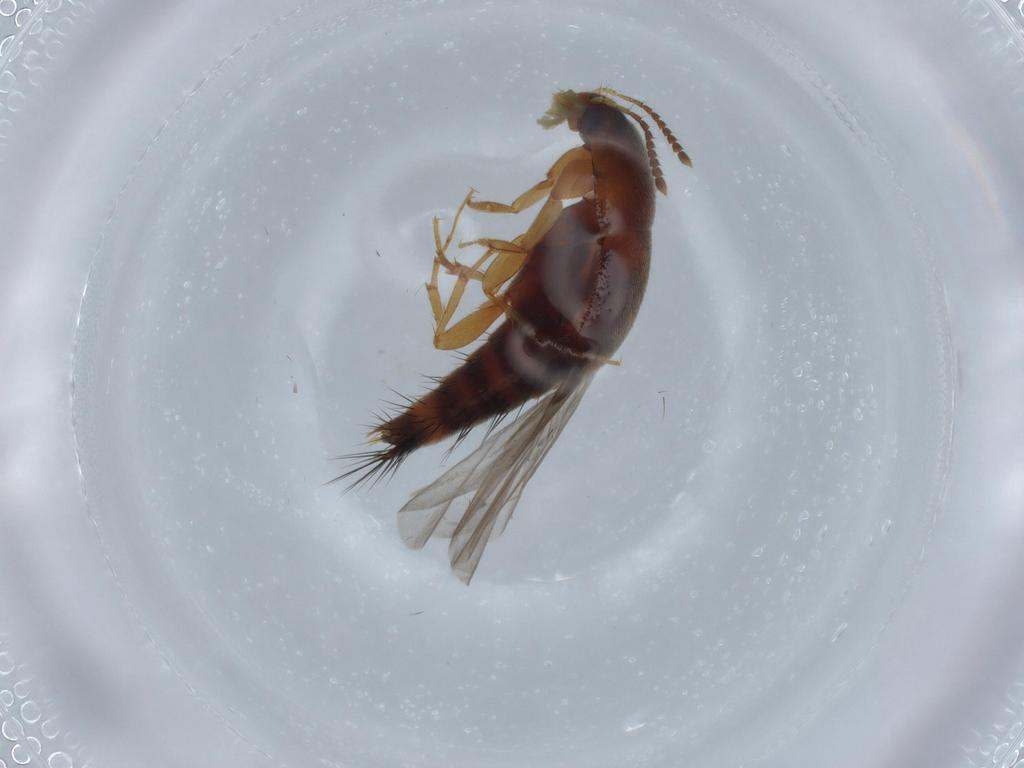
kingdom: Animalia
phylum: Arthropoda
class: Insecta
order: Coleoptera
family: Staphylinidae
